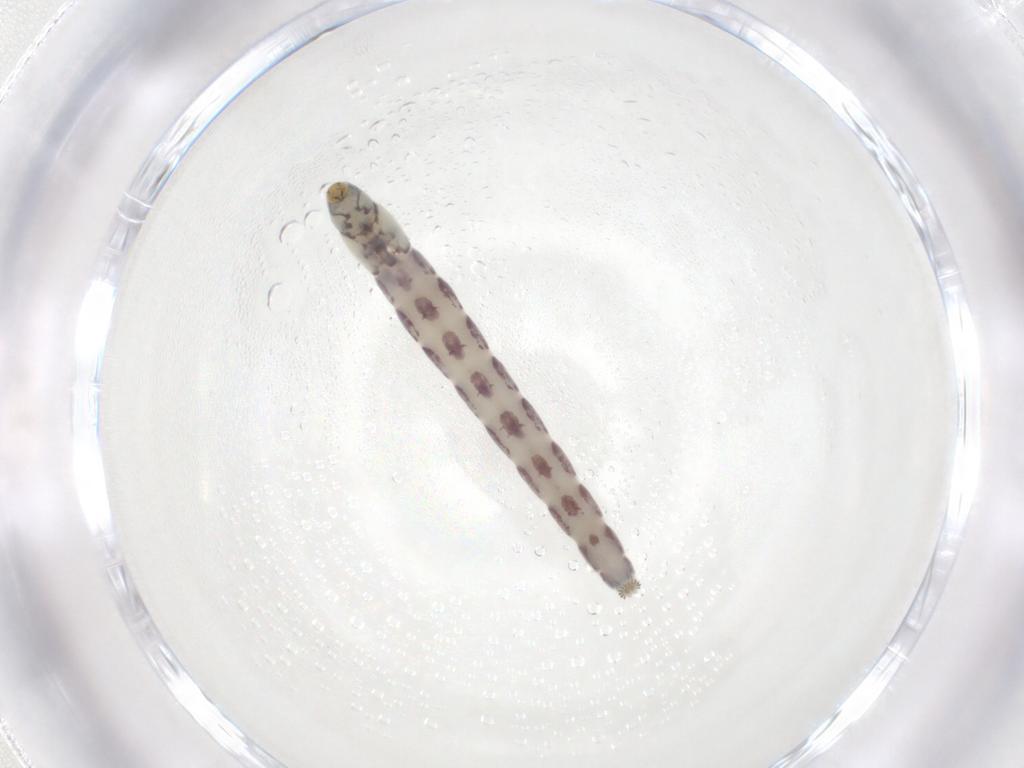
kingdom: Animalia
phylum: Arthropoda
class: Insecta
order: Diptera
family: Chironomidae
